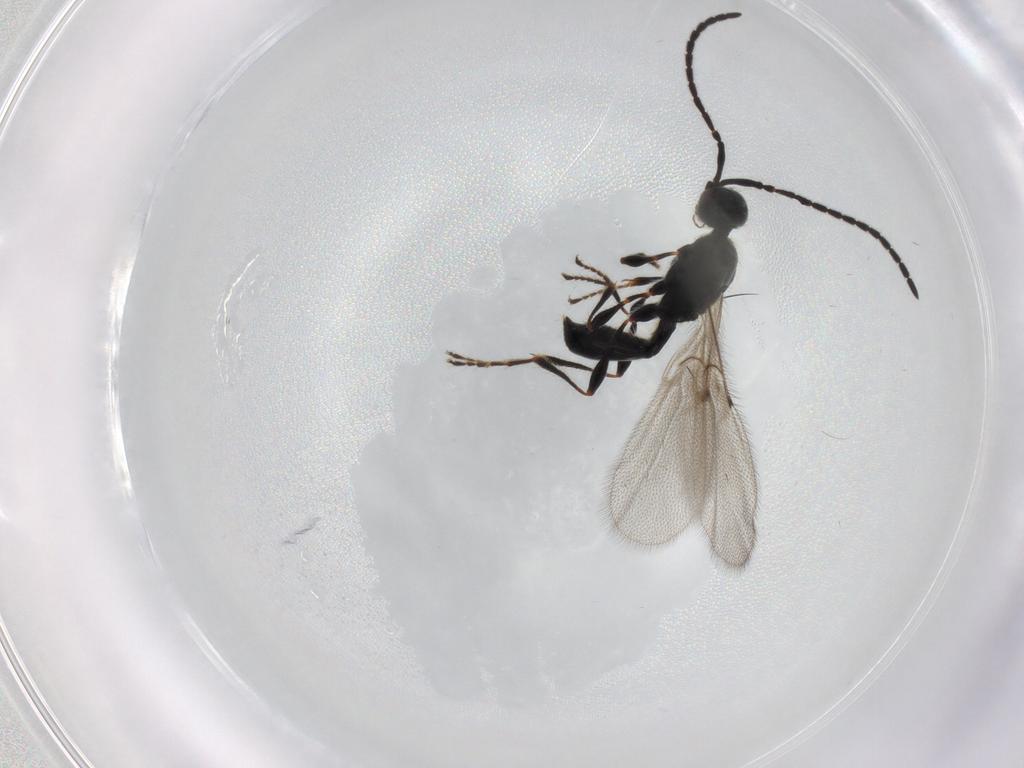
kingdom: Animalia
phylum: Arthropoda
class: Insecta
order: Hymenoptera
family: Diapriidae
